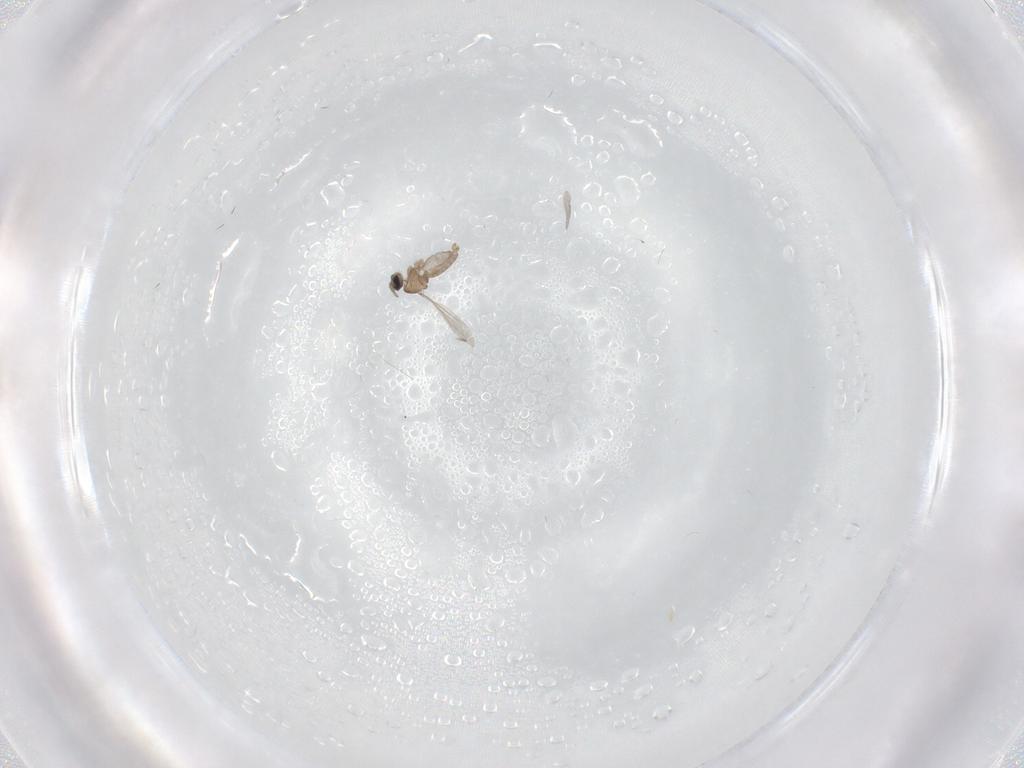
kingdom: Animalia
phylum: Arthropoda
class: Insecta
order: Diptera
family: Cecidomyiidae
